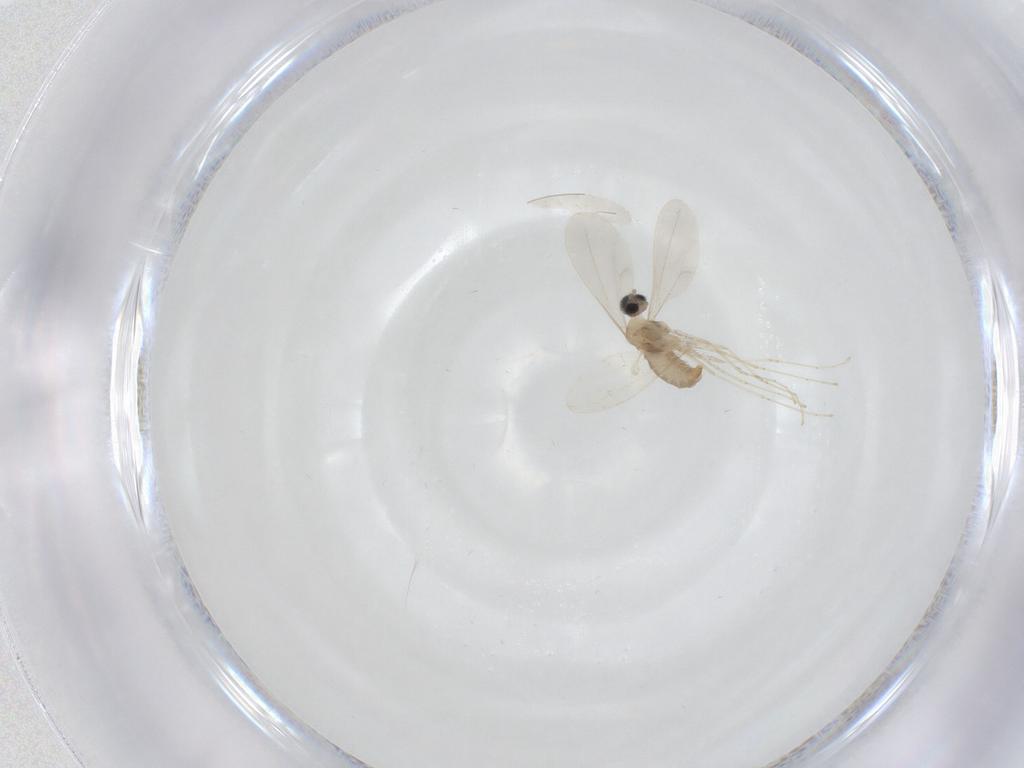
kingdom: Animalia
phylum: Arthropoda
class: Insecta
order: Diptera
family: Cecidomyiidae
